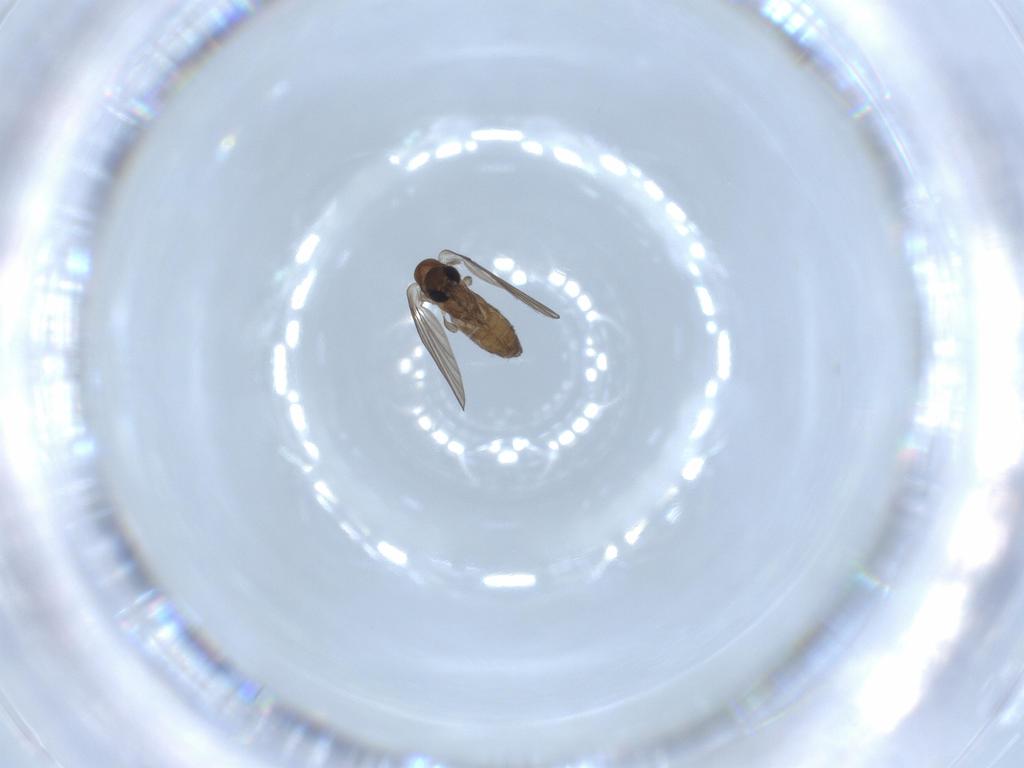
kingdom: Animalia
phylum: Arthropoda
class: Insecta
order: Diptera
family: Psychodidae
